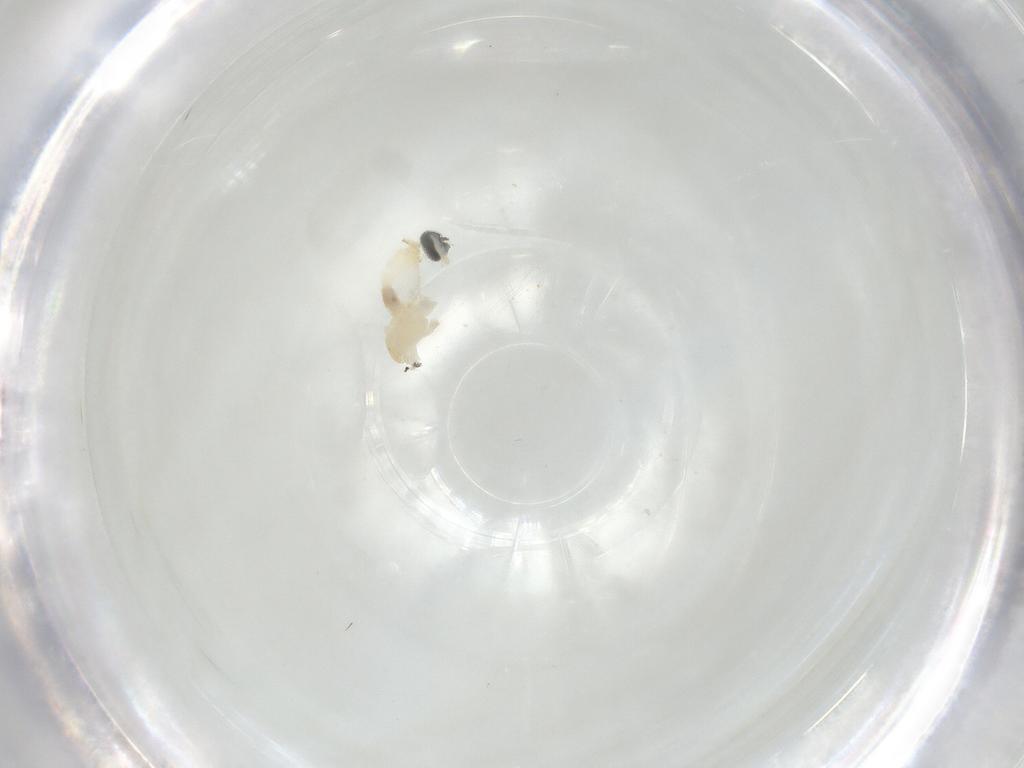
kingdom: Animalia
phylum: Arthropoda
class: Insecta
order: Diptera
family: Cecidomyiidae
